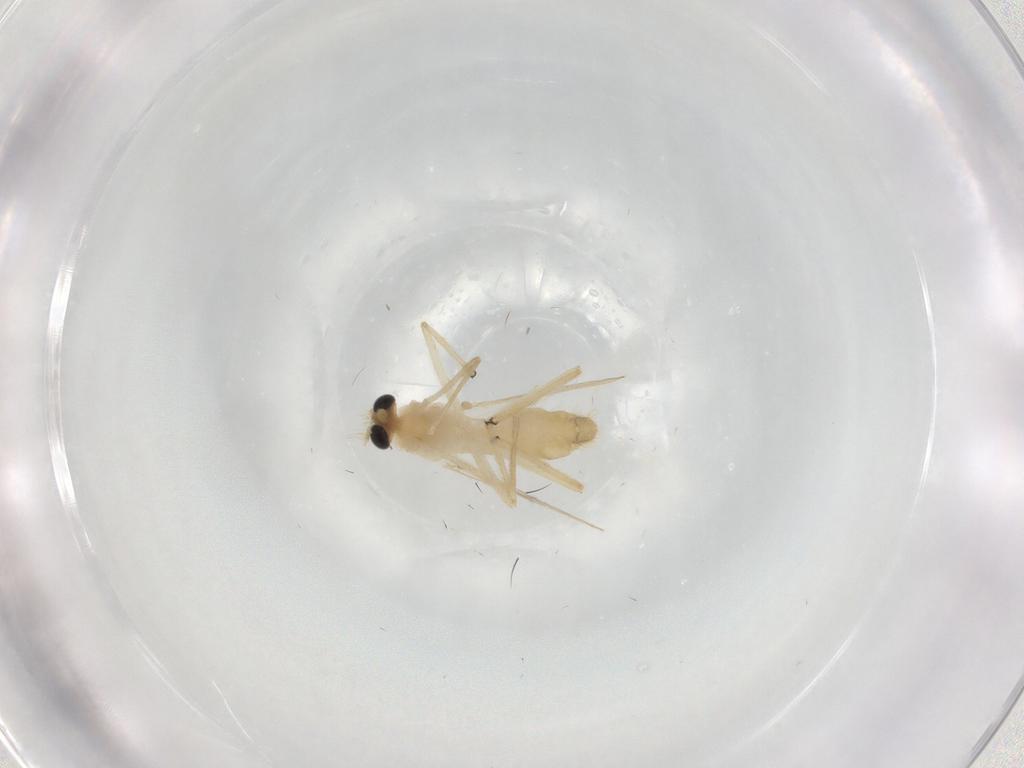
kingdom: Animalia
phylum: Arthropoda
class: Insecta
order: Diptera
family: Chironomidae
